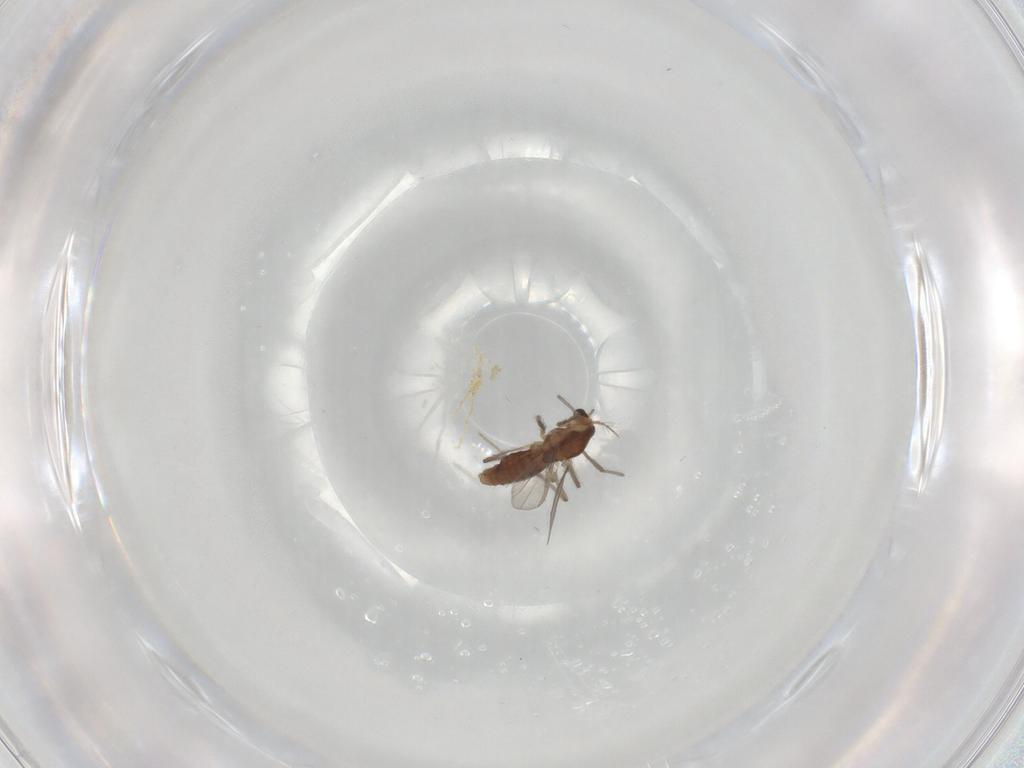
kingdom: Animalia
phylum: Arthropoda
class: Insecta
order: Diptera
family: Chironomidae
